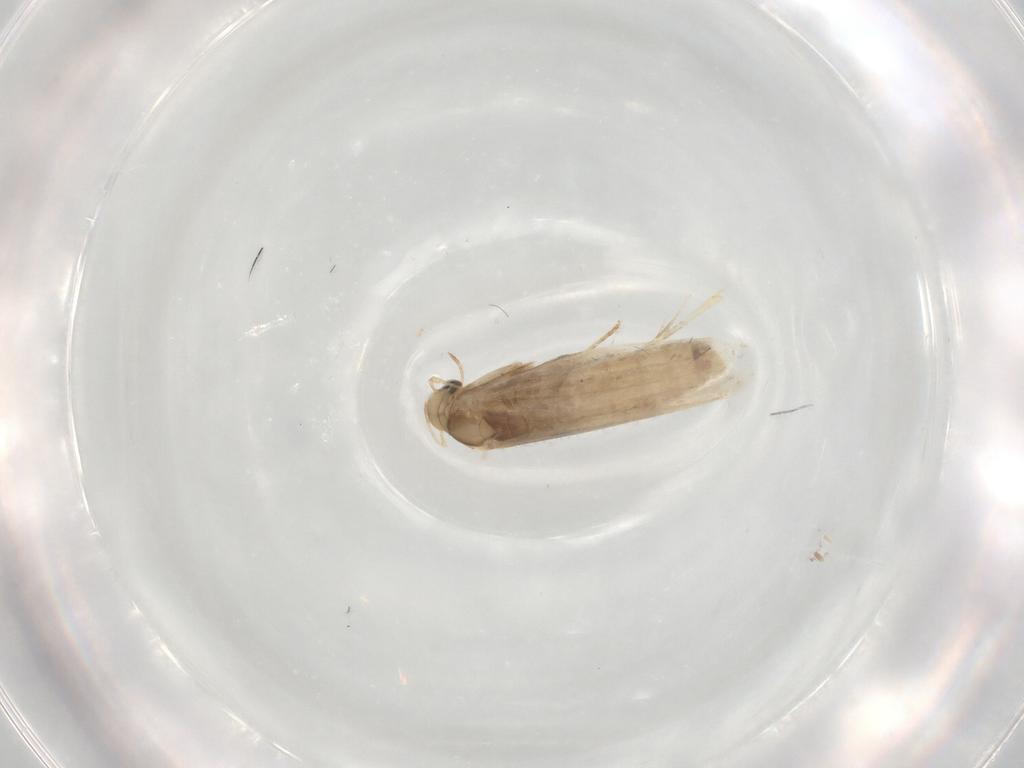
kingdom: Animalia
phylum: Arthropoda
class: Insecta
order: Lepidoptera
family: Gracillariidae
